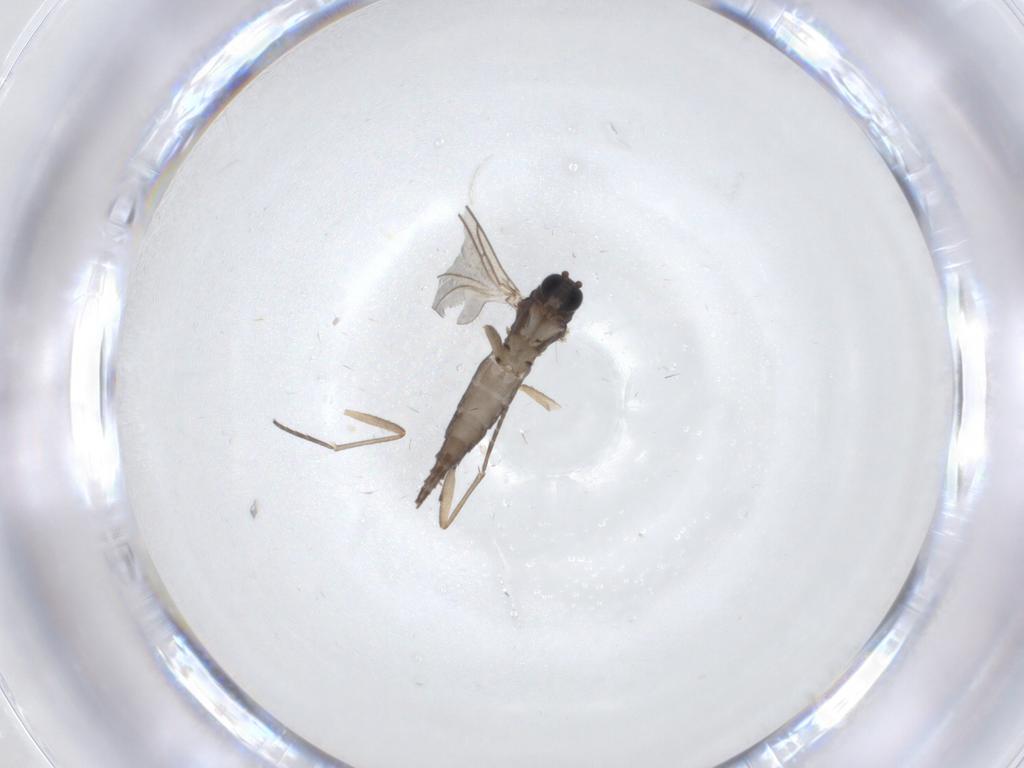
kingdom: Animalia
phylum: Arthropoda
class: Insecta
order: Diptera
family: Sciaridae
